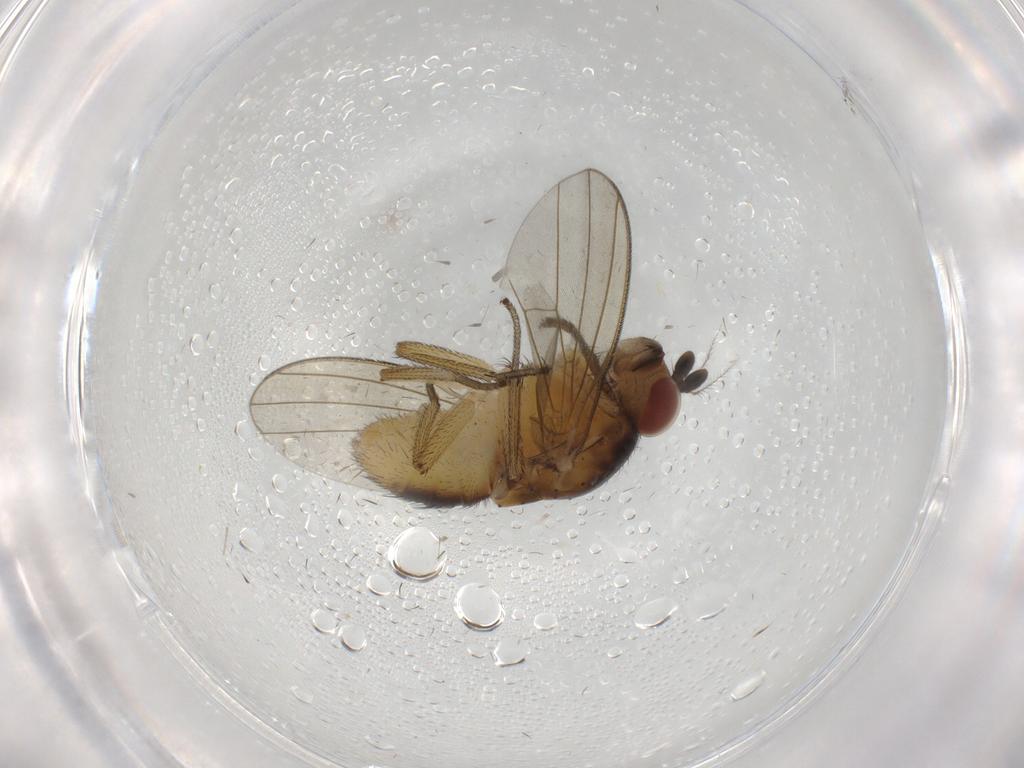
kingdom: Animalia
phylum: Arthropoda
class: Insecta
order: Diptera
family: Cecidomyiidae
